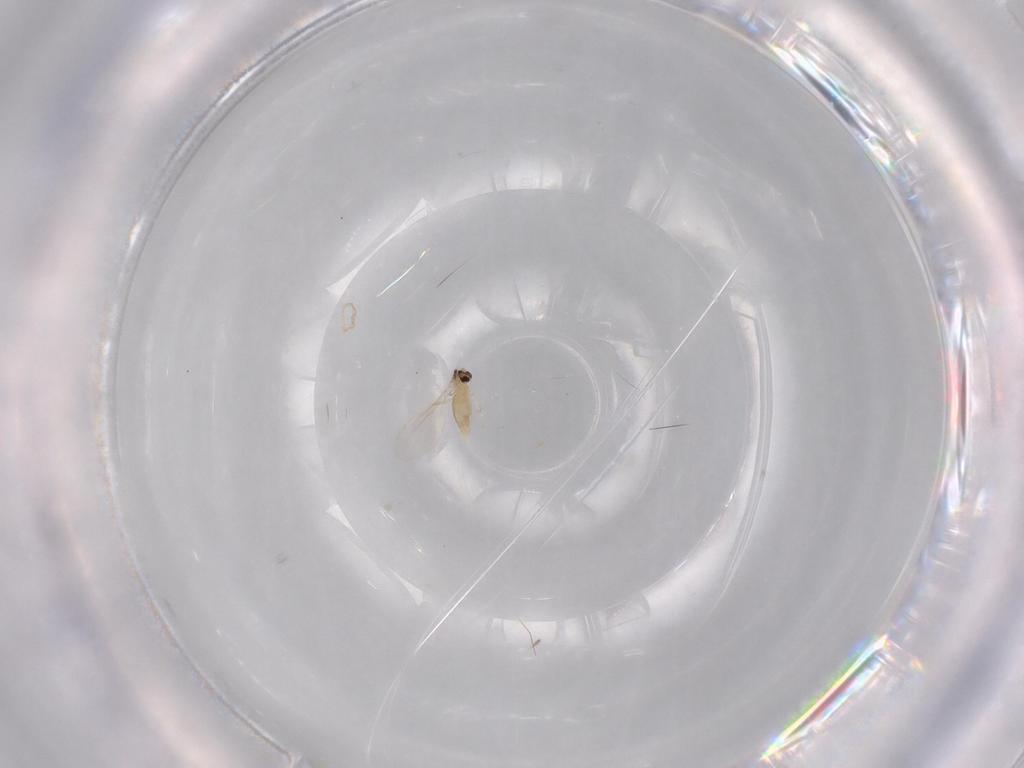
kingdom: Animalia
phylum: Arthropoda
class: Insecta
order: Diptera
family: Cecidomyiidae
